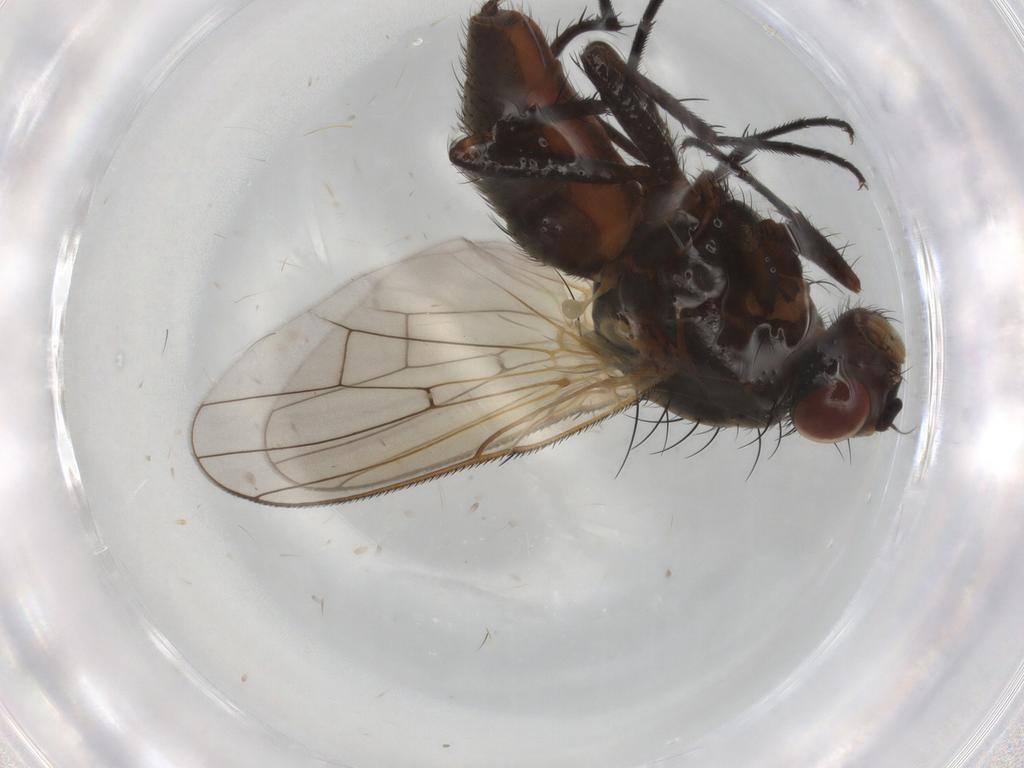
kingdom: Animalia
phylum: Arthropoda
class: Insecta
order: Diptera
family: Anthomyiidae
